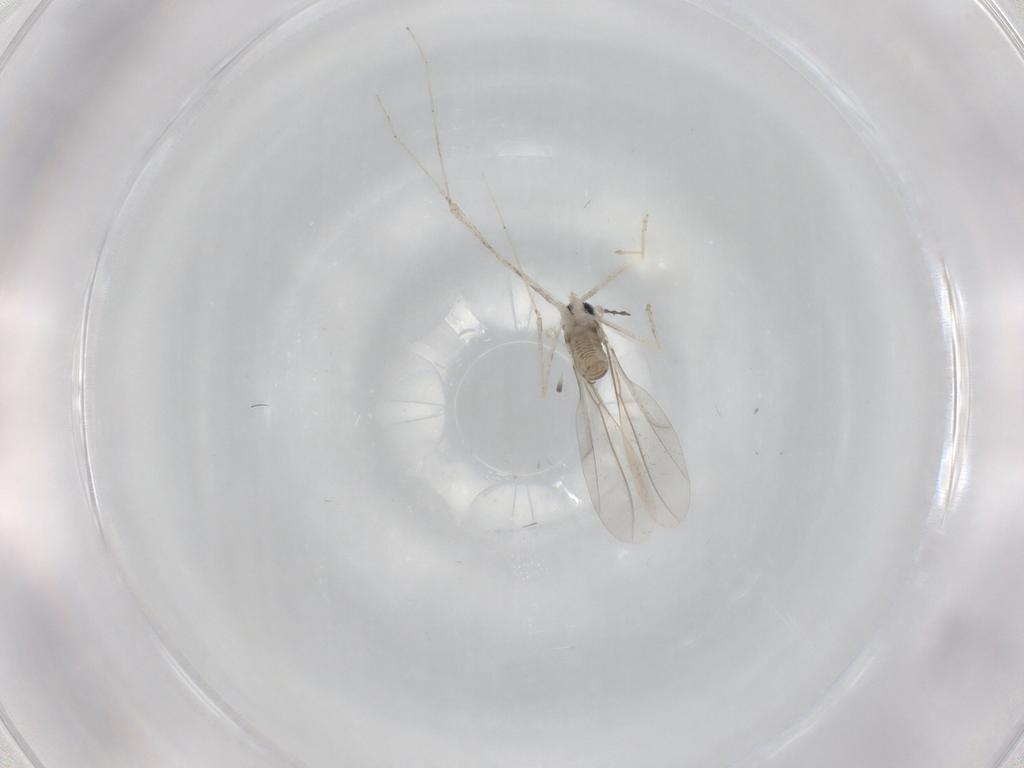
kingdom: Animalia
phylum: Arthropoda
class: Insecta
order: Diptera
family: Cecidomyiidae
